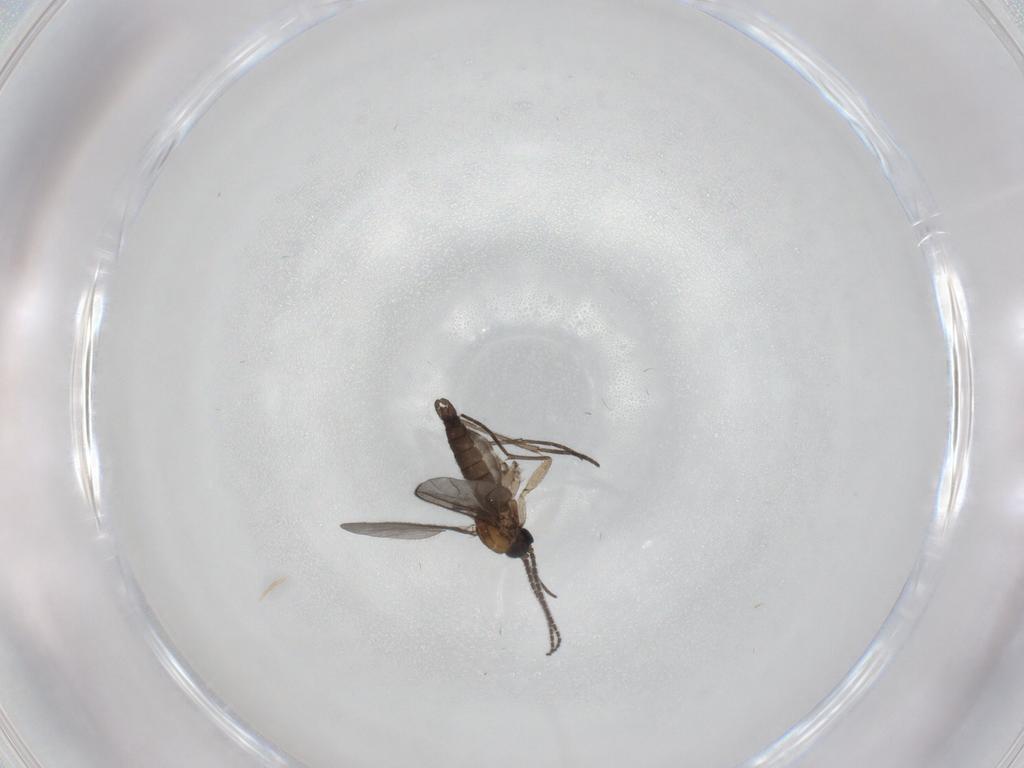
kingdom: Animalia
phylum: Arthropoda
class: Insecta
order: Diptera
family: Sciaridae
